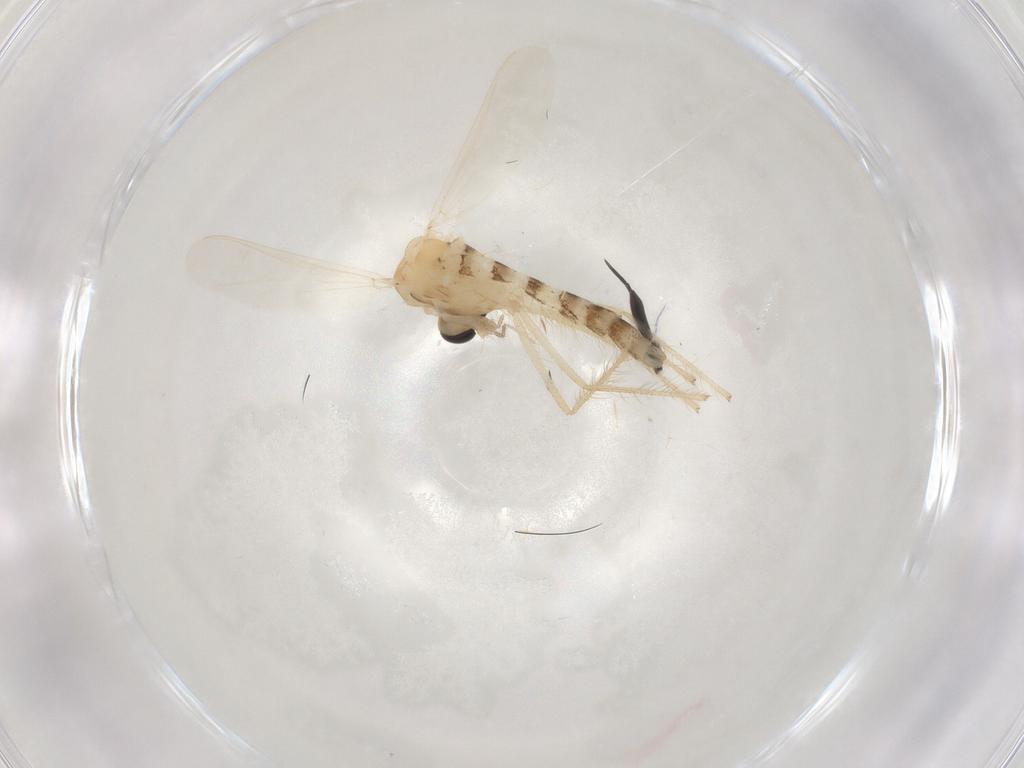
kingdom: Animalia
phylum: Arthropoda
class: Insecta
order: Diptera
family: Chironomidae
